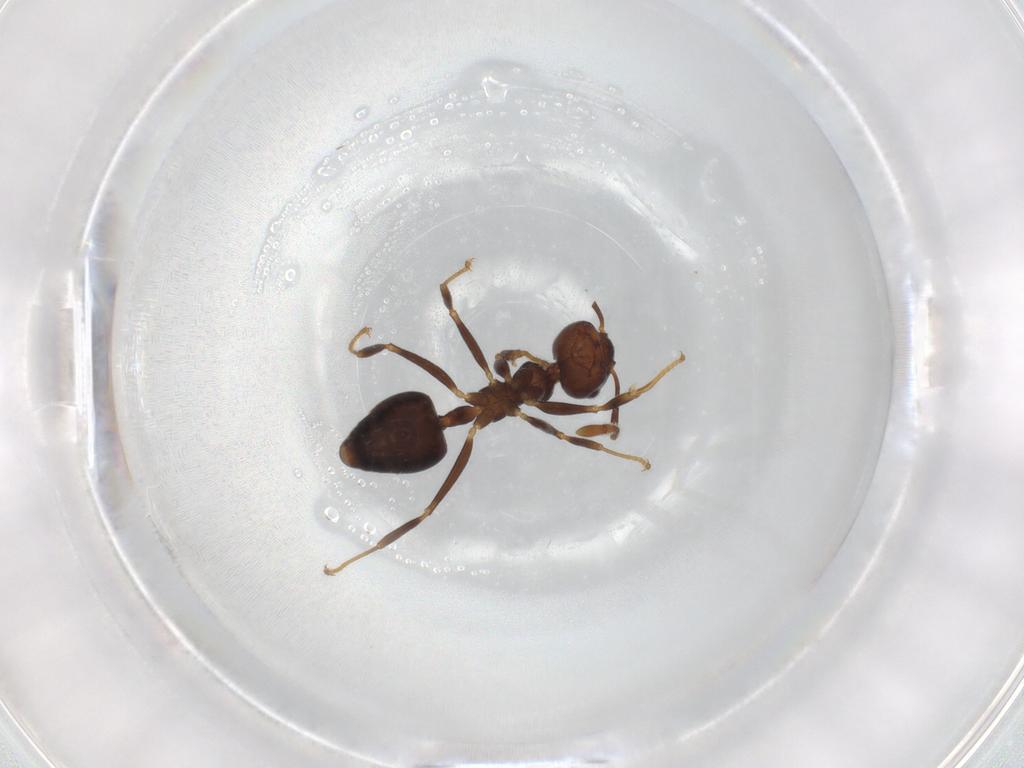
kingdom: Animalia
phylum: Arthropoda
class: Insecta
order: Hymenoptera
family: Formicidae
